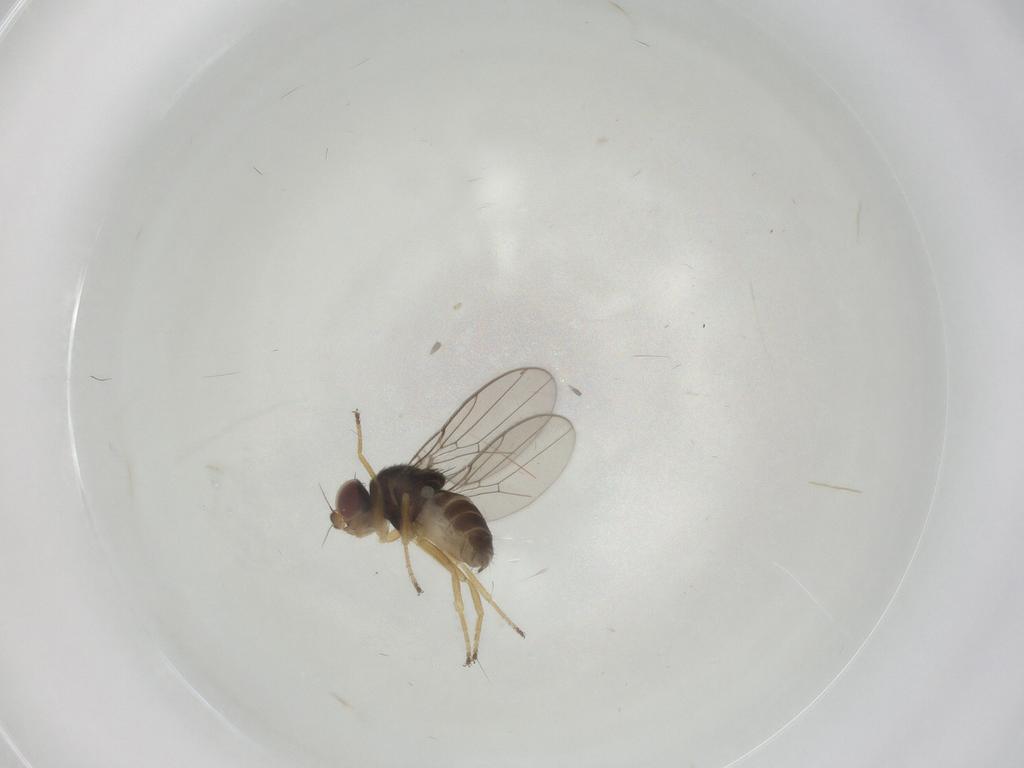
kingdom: Animalia
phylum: Arthropoda
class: Insecta
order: Diptera
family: Chloropidae
